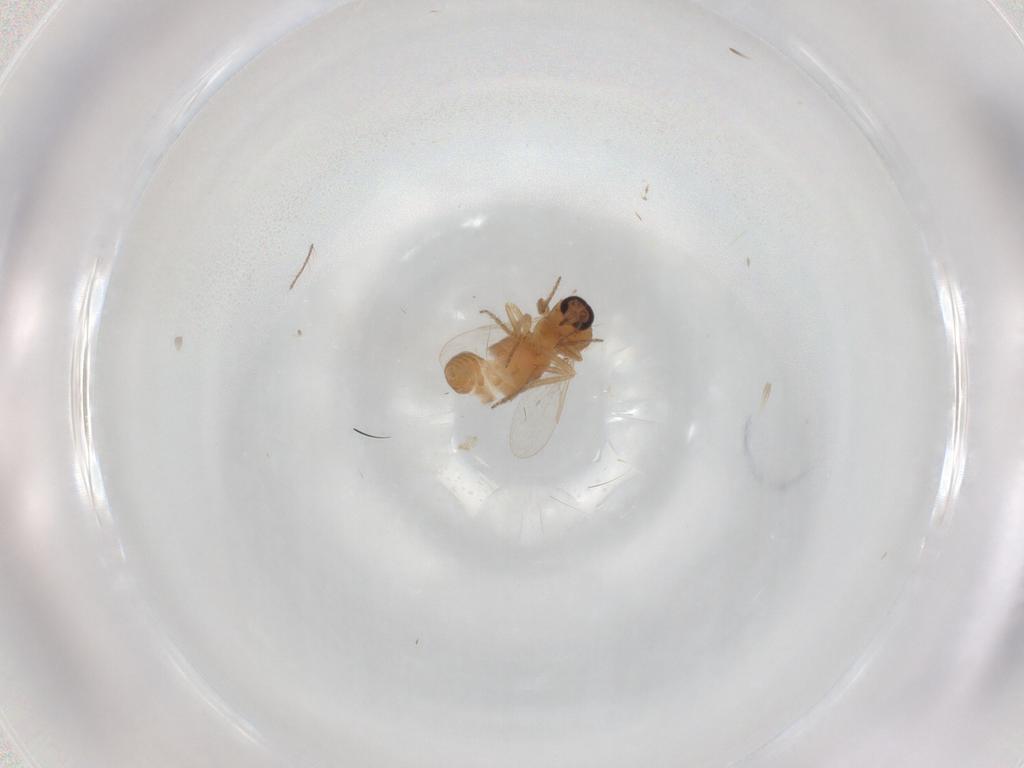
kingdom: Animalia
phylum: Arthropoda
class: Insecta
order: Diptera
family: Ceratopogonidae
